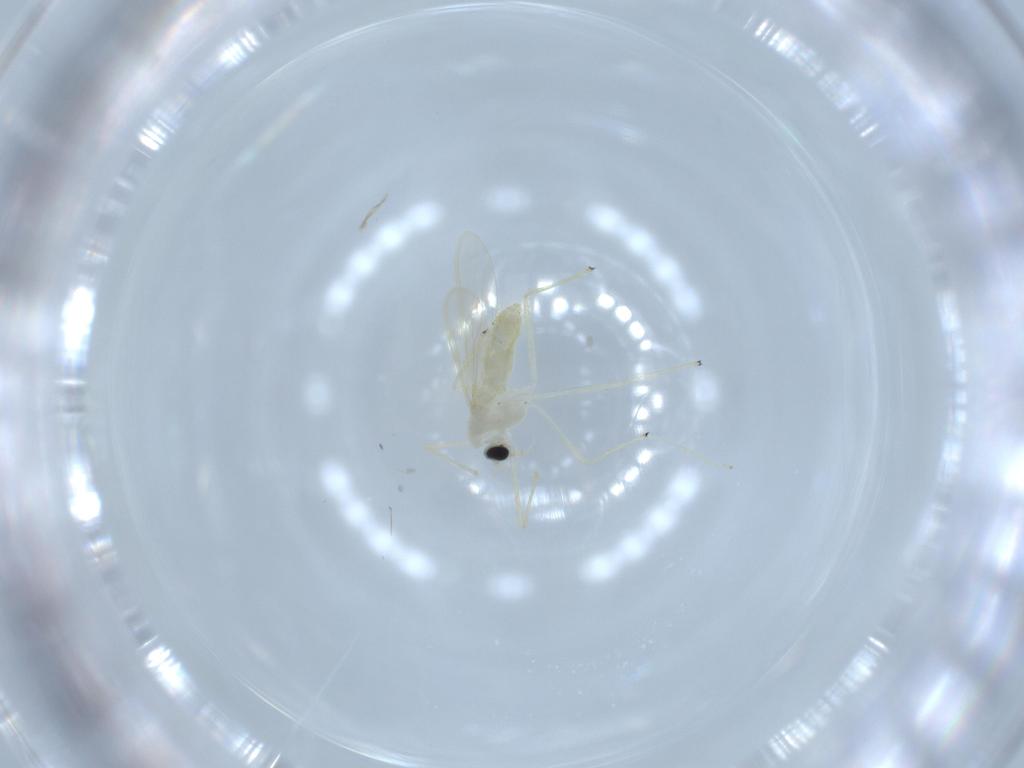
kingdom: Animalia
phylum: Arthropoda
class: Insecta
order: Diptera
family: Chironomidae
